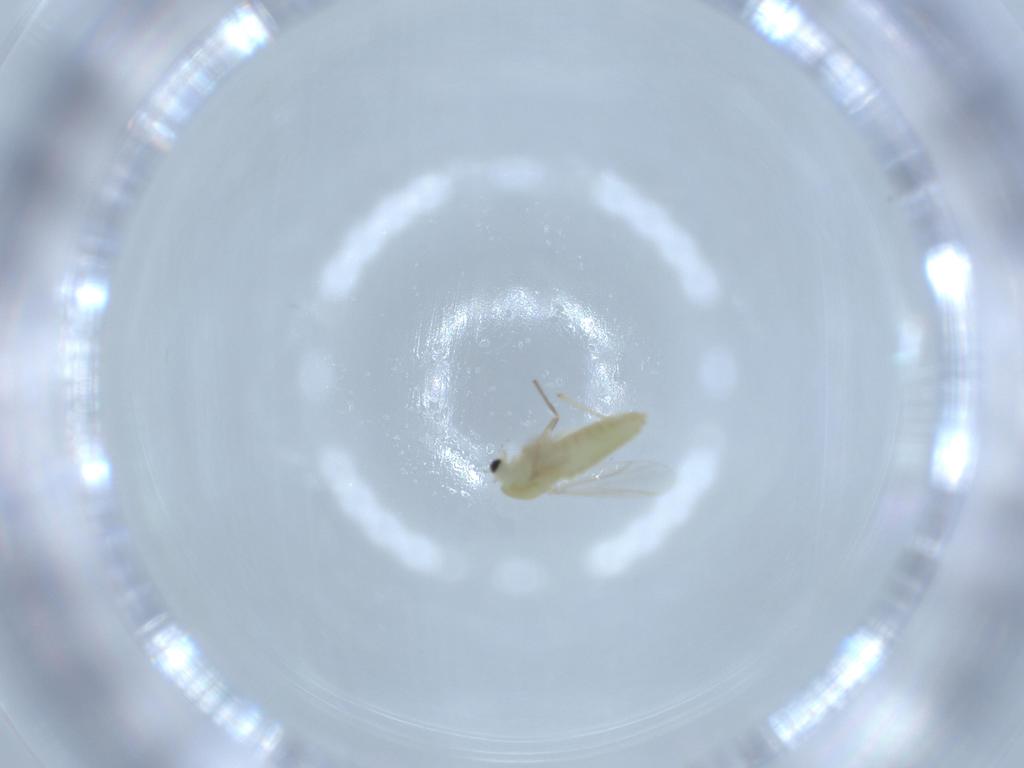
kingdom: Animalia
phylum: Arthropoda
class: Insecta
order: Diptera
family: Chironomidae
